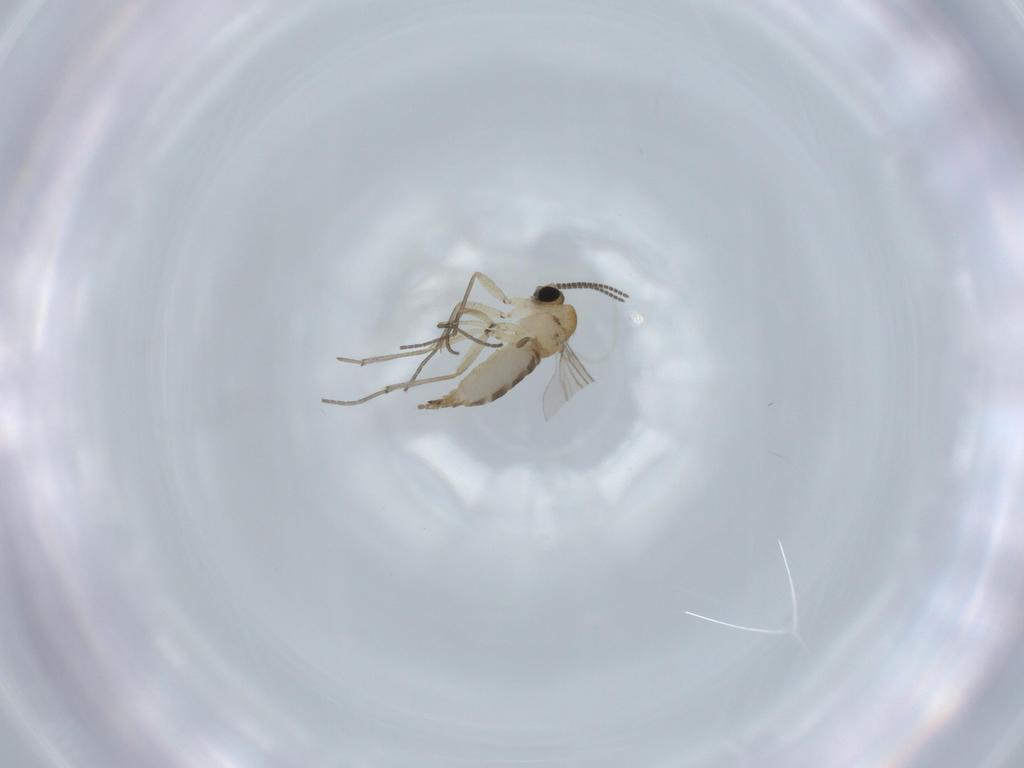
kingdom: Animalia
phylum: Arthropoda
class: Insecta
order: Diptera
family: Sciaridae
